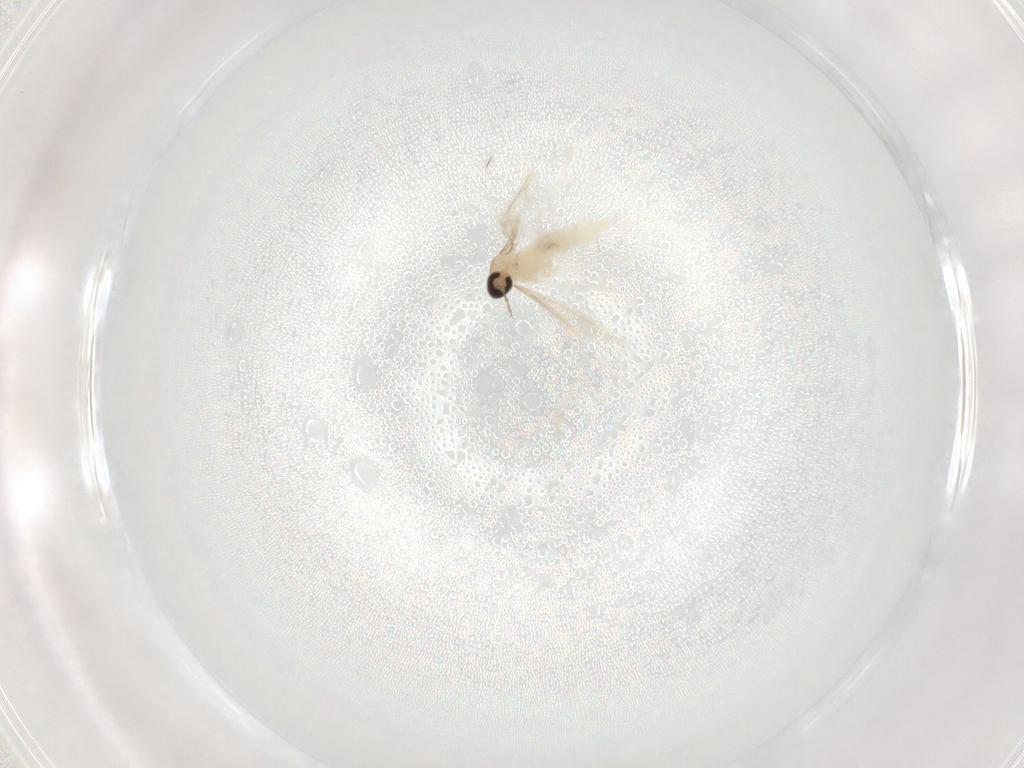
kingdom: Animalia
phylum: Arthropoda
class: Insecta
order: Diptera
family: Cecidomyiidae
